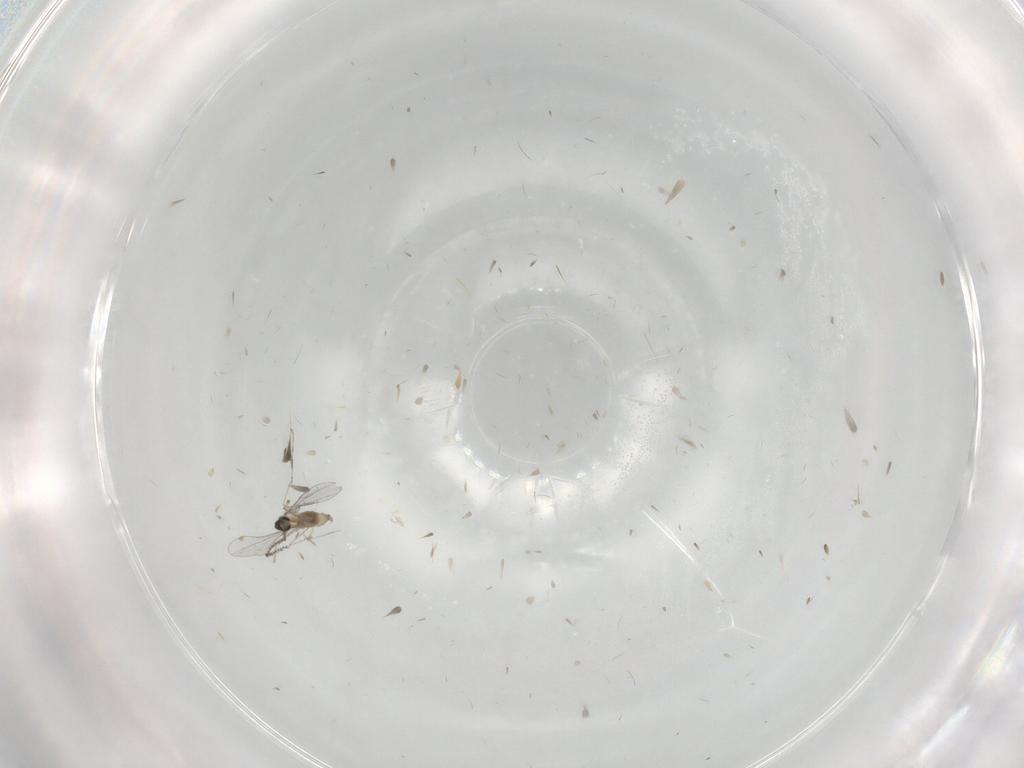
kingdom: Animalia
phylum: Arthropoda
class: Insecta
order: Diptera
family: Cecidomyiidae
